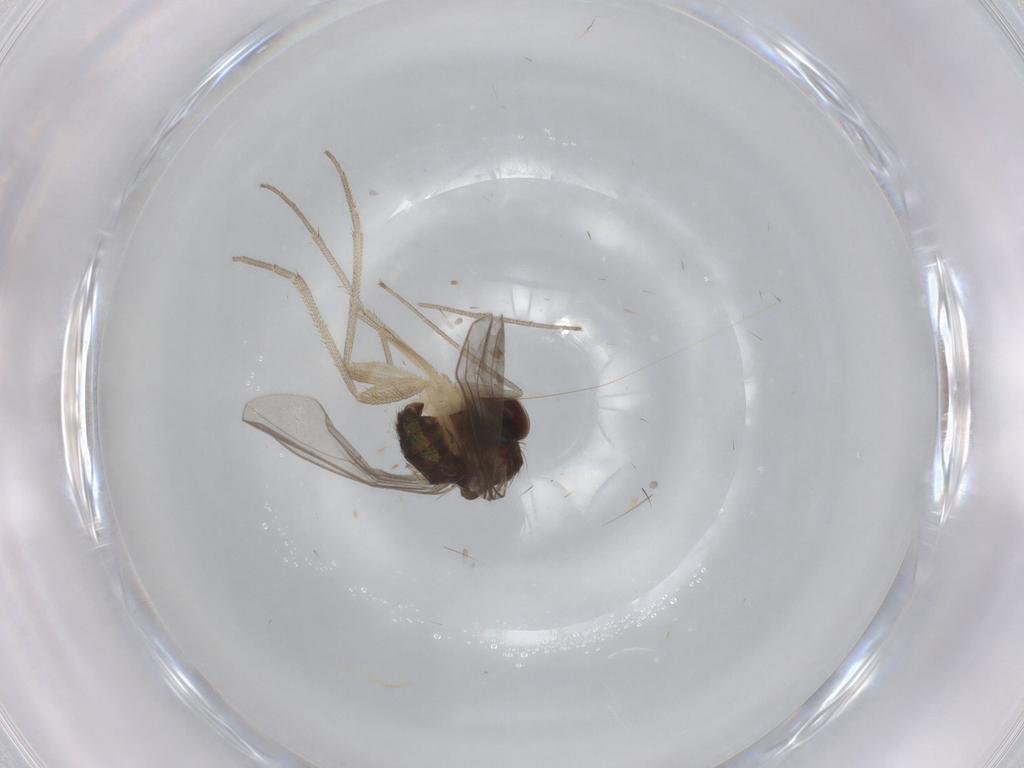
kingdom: Animalia
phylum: Arthropoda
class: Insecta
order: Diptera
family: Dolichopodidae
